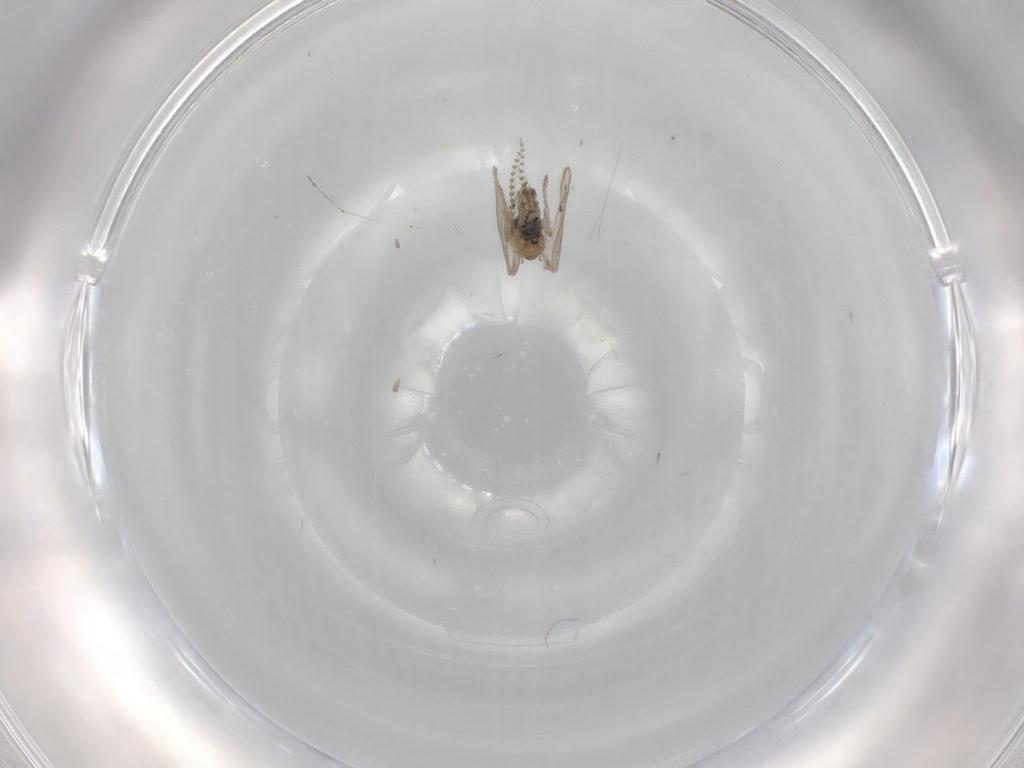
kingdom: Animalia
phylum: Arthropoda
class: Insecta
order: Diptera
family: Psychodidae
